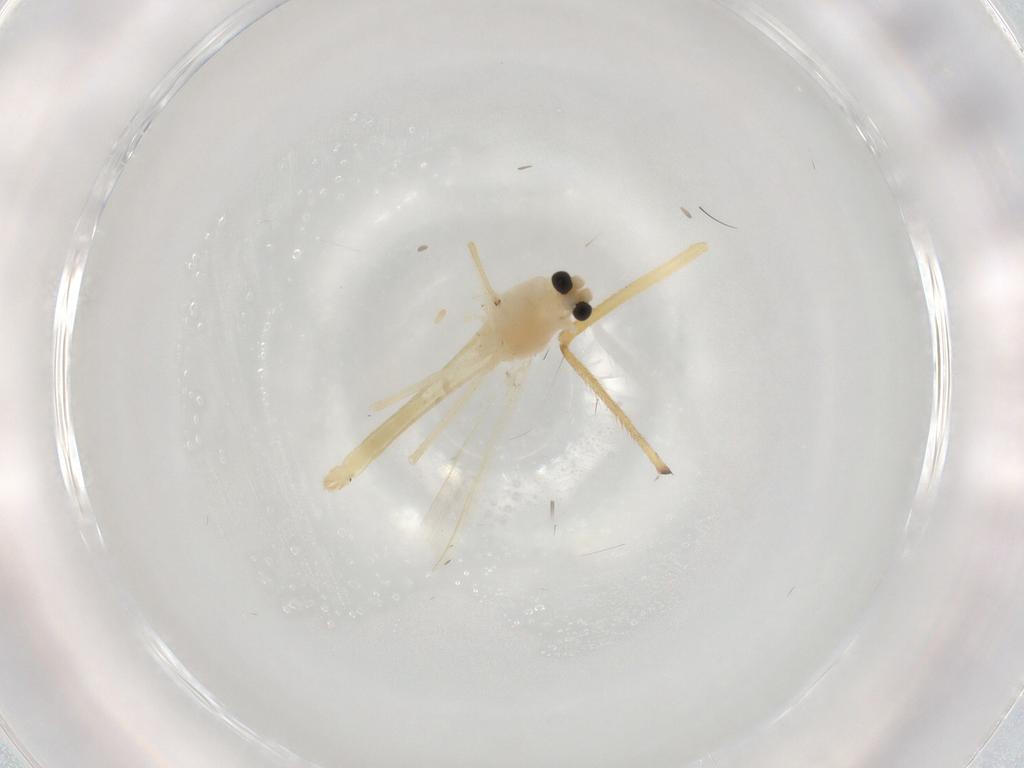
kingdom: Animalia
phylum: Arthropoda
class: Insecta
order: Diptera
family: Chironomidae
